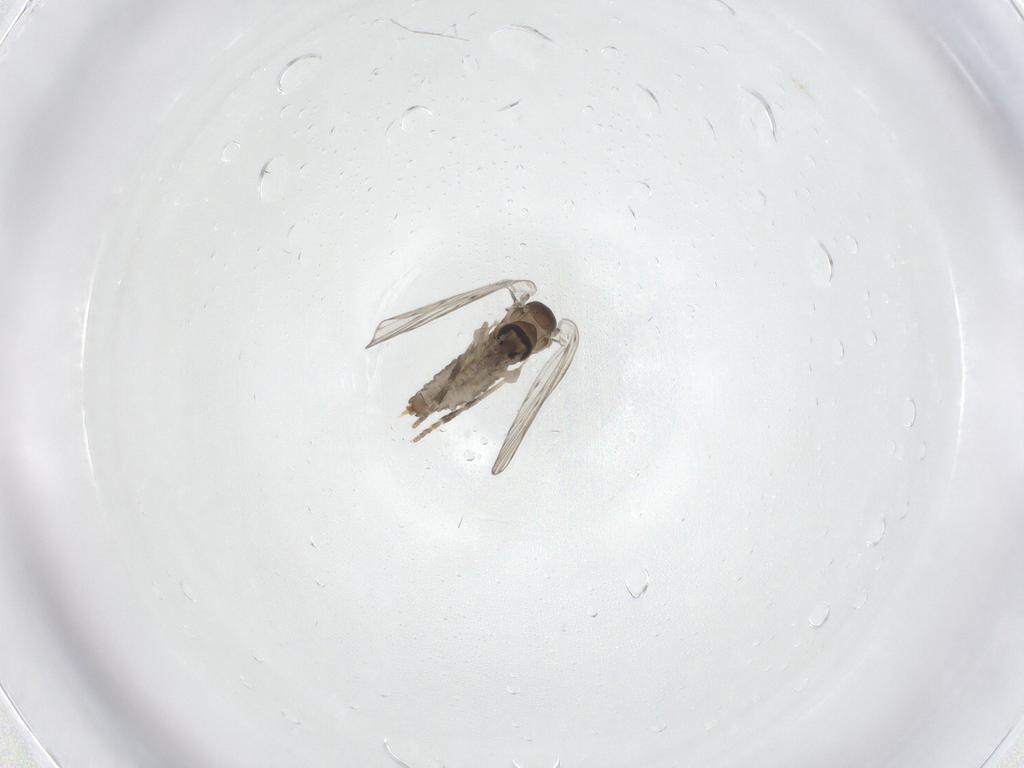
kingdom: Animalia
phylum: Arthropoda
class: Insecta
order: Diptera
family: Psychodidae
